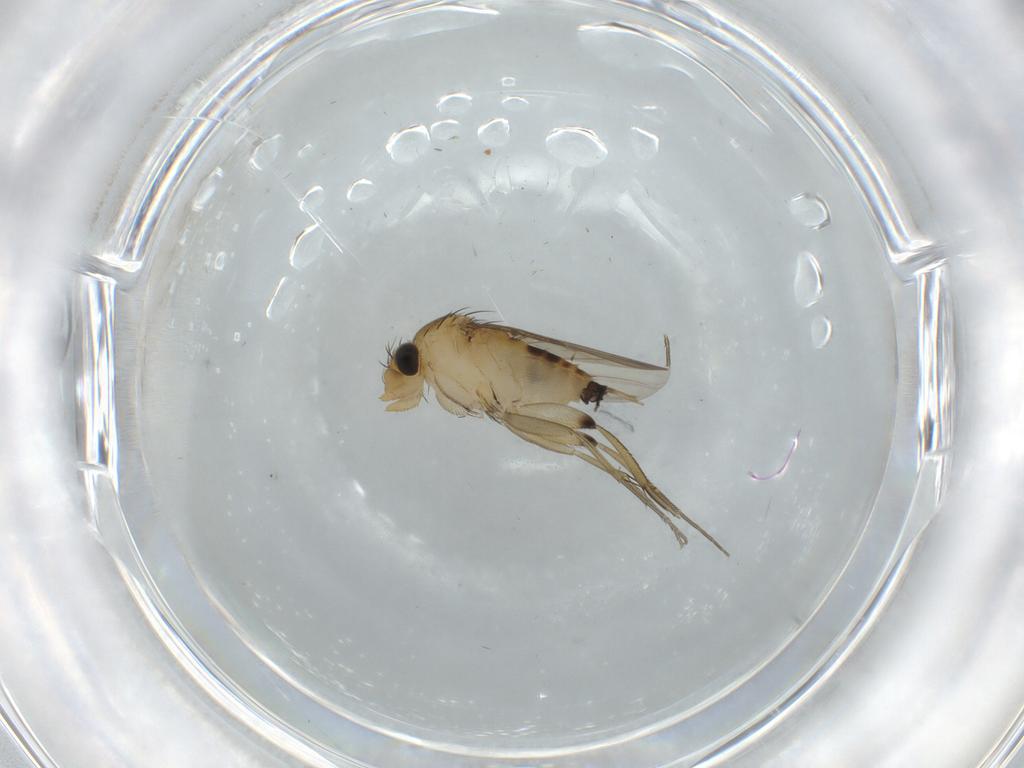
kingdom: Animalia
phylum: Arthropoda
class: Insecta
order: Diptera
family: Phoridae
